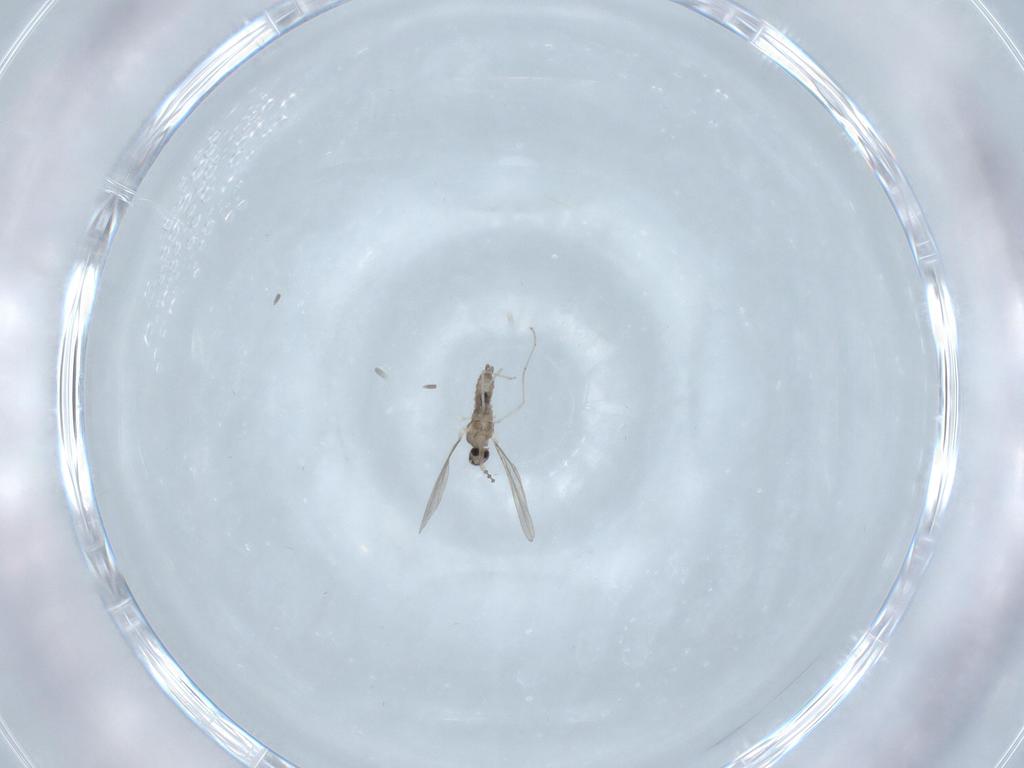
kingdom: Animalia
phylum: Arthropoda
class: Insecta
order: Diptera
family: Cecidomyiidae
